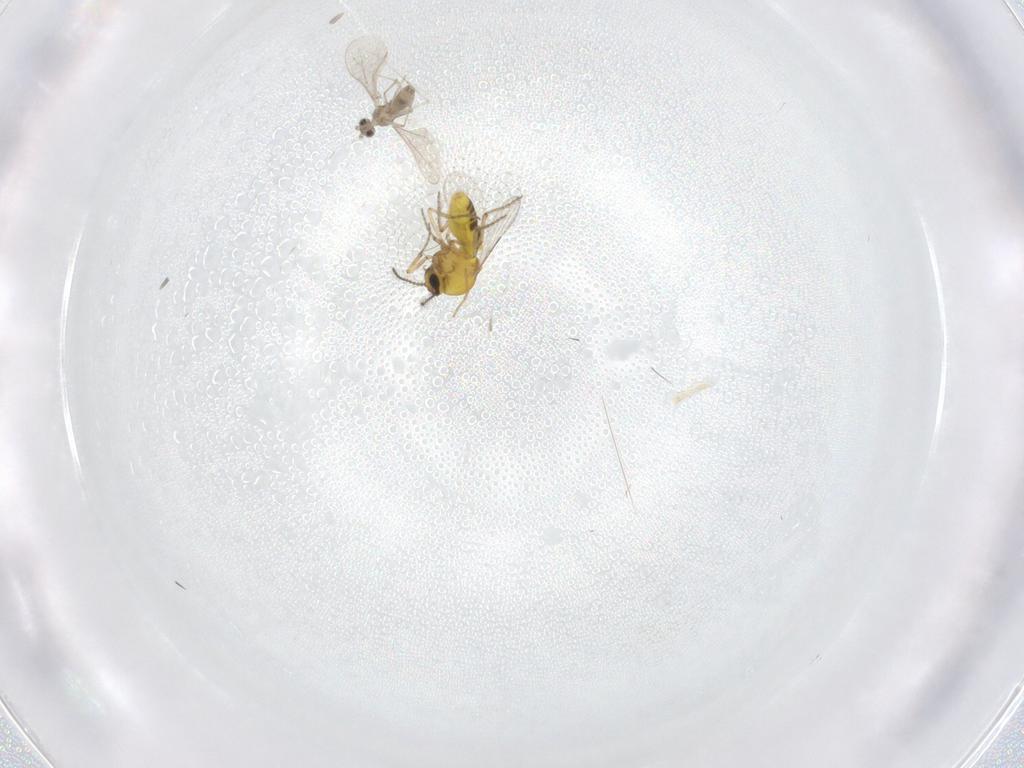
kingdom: Animalia
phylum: Arthropoda
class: Insecta
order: Diptera
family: Ceratopogonidae
